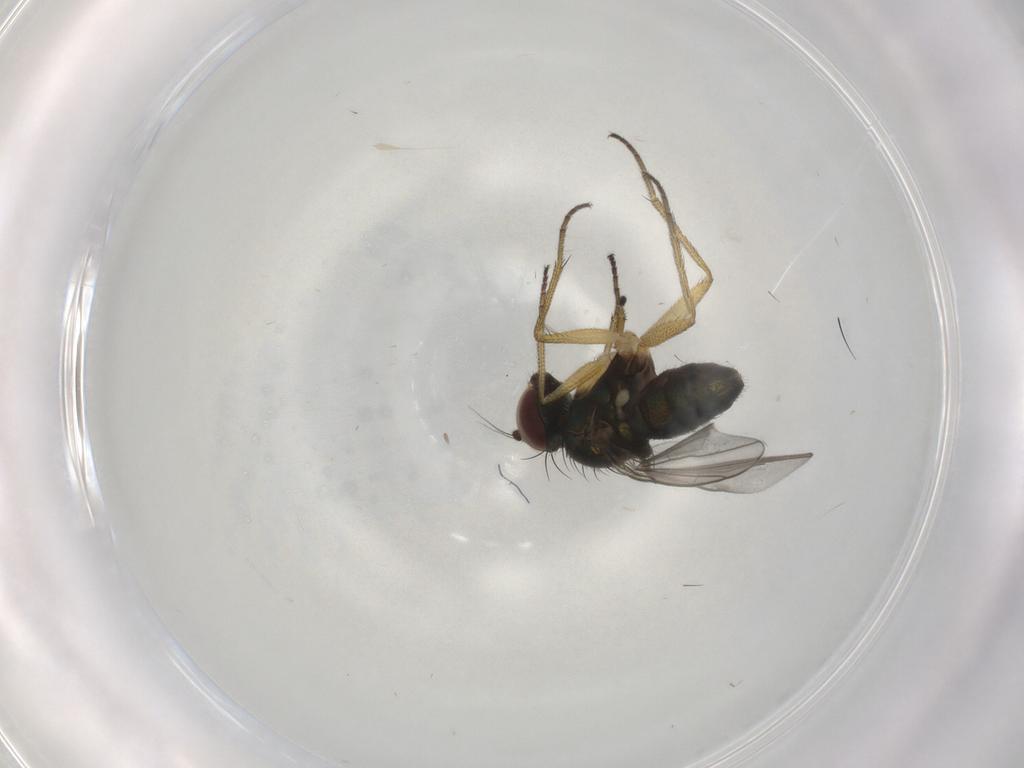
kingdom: Animalia
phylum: Arthropoda
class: Insecta
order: Diptera
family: Dolichopodidae
